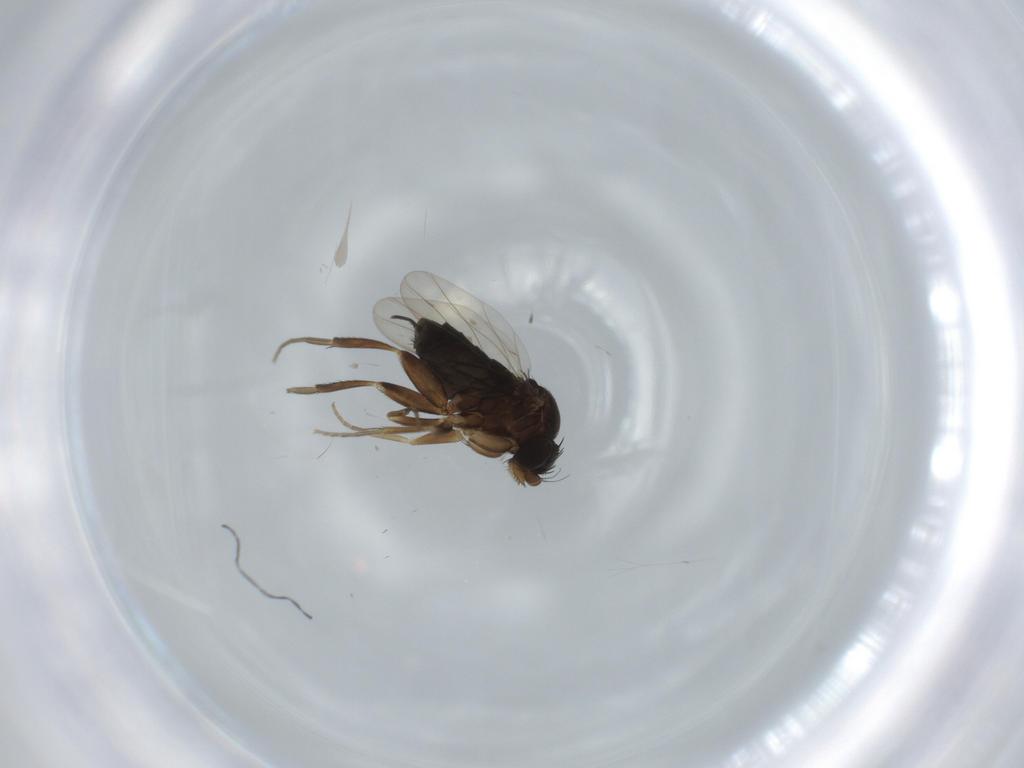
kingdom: Animalia
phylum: Arthropoda
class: Insecta
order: Diptera
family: Phoridae
